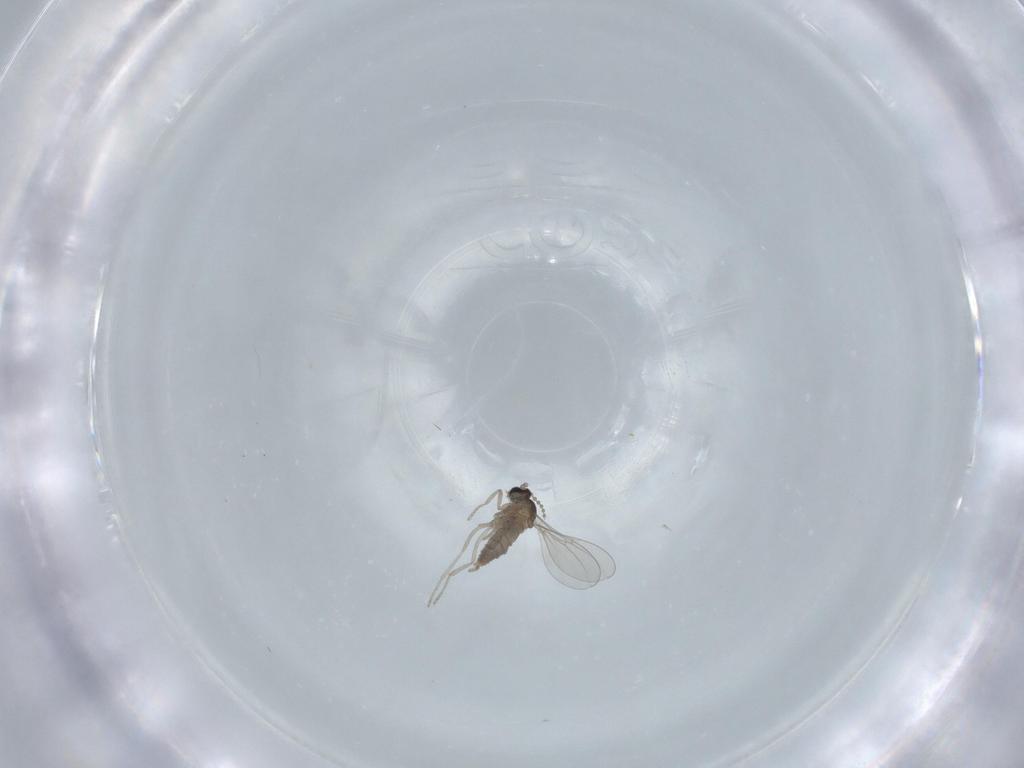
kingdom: Animalia
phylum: Arthropoda
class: Insecta
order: Diptera
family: Cecidomyiidae
